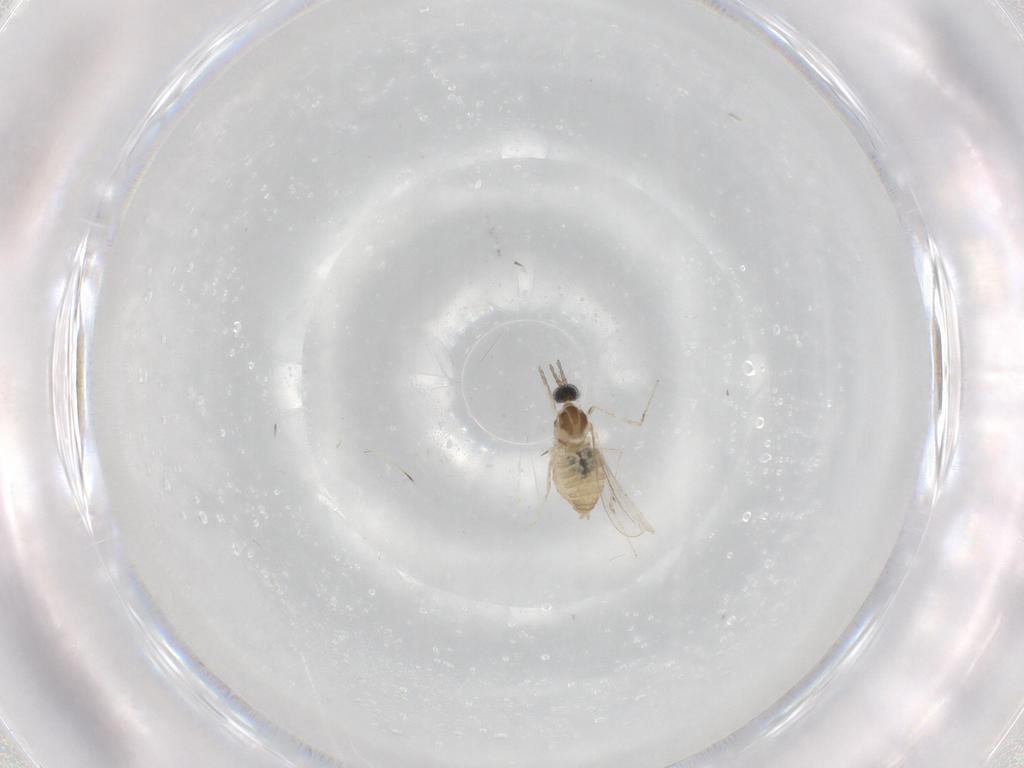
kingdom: Animalia
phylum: Arthropoda
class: Insecta
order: Diptera
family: Cecidomyiidae
